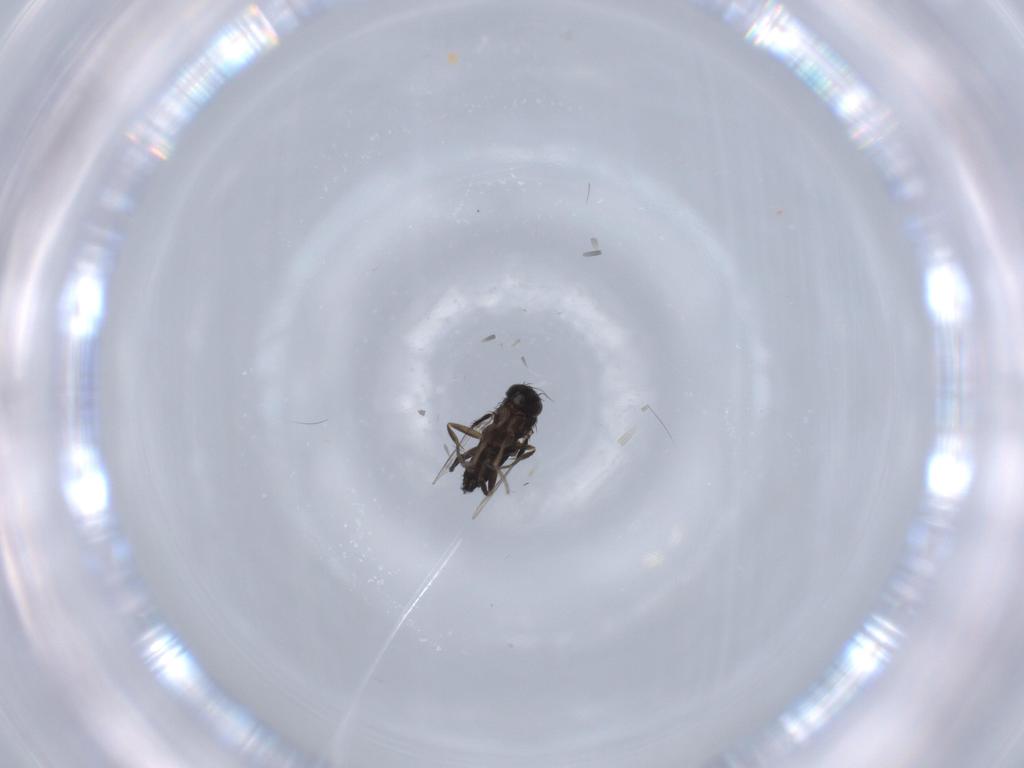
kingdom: Animalia
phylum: Arthropoda
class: Insecta
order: Diptera
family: Phoridae
